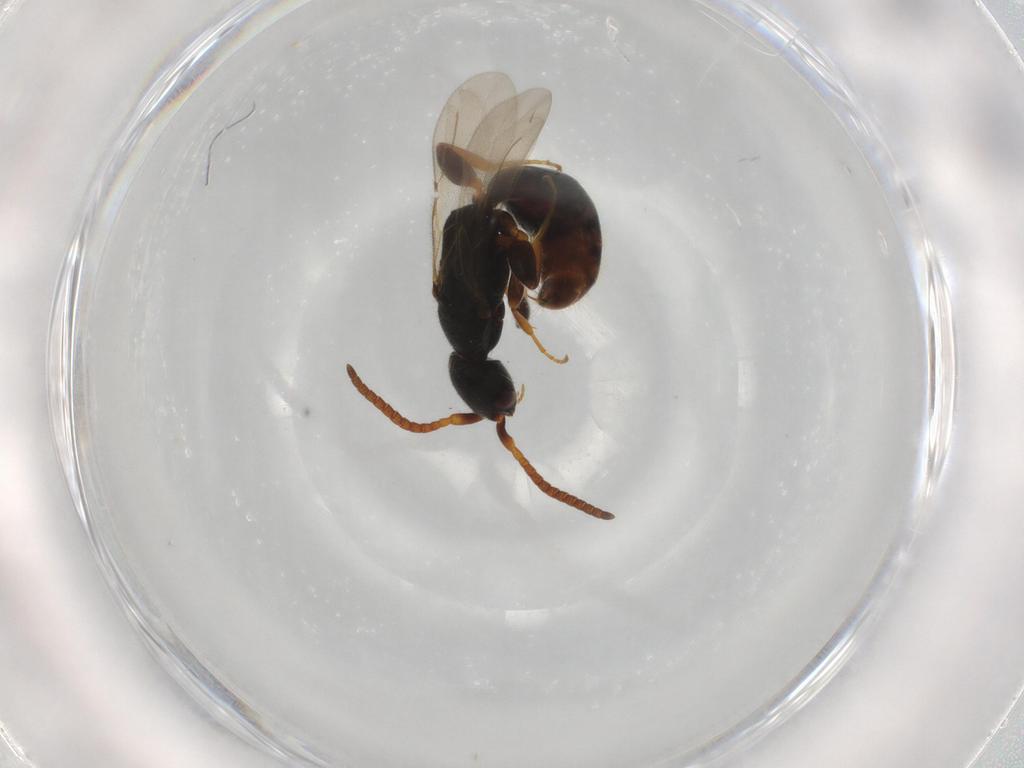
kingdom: Animalia
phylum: Arthropoda
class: Insecta
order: Hymenoptera
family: Bethylidae
